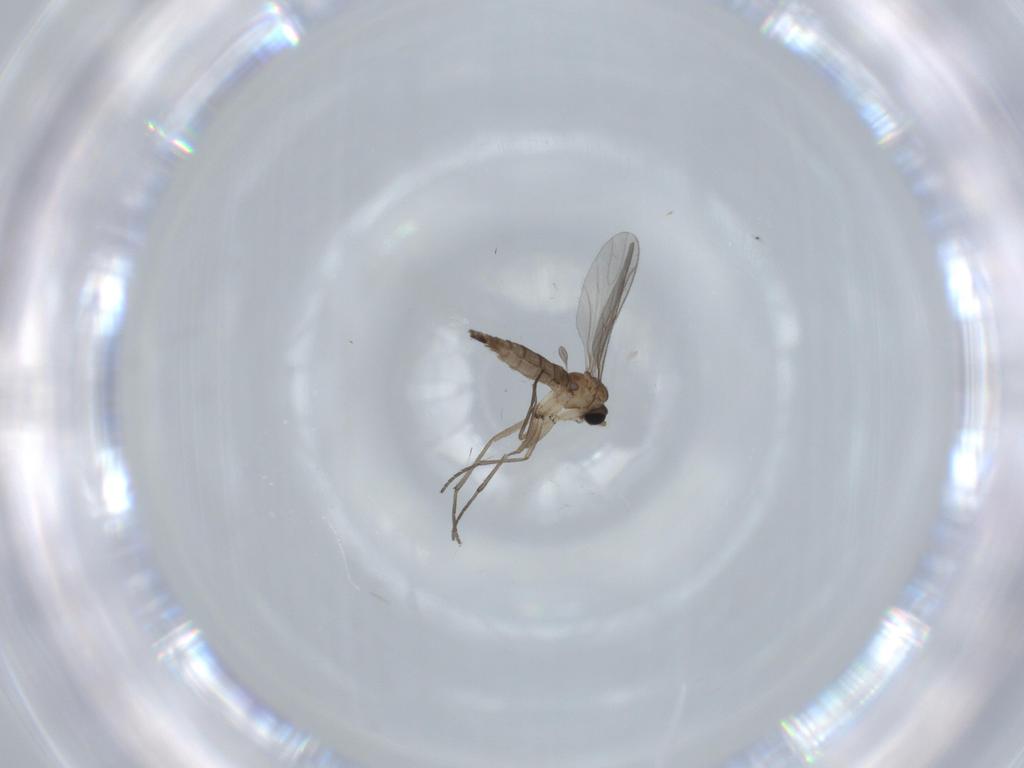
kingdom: Animalia
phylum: Arthropoda
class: Insecta
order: Diptera
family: Sciaridae
